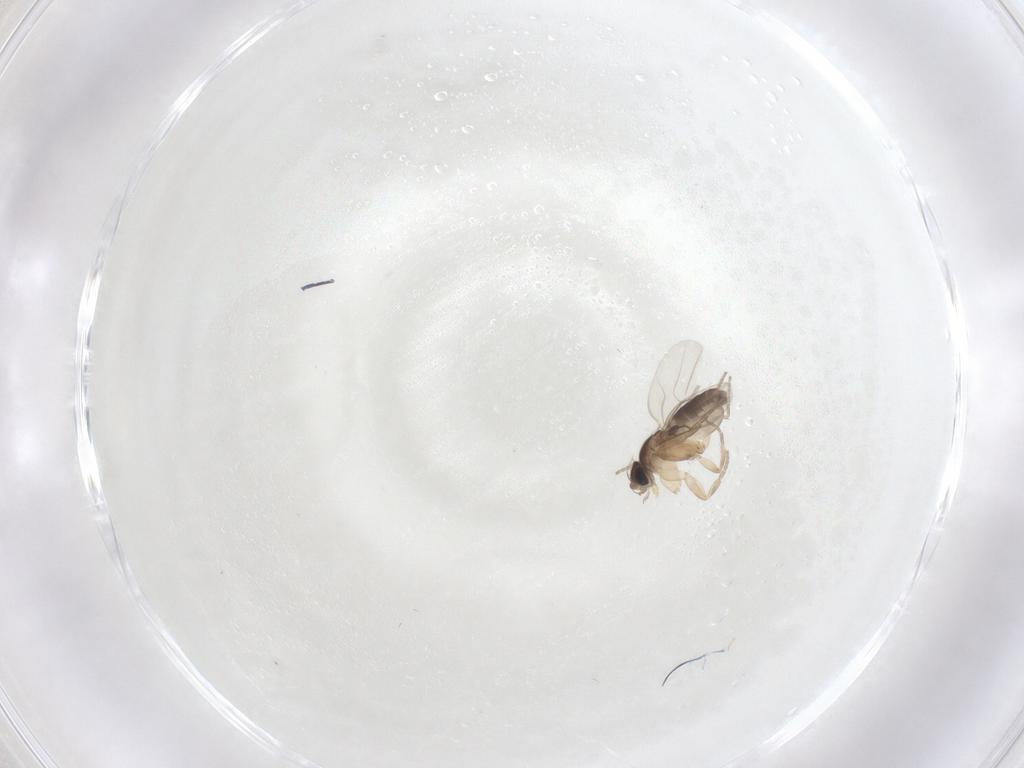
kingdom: Animalia
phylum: Arthropoda
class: Insecta
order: Diptera
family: Phoridae
